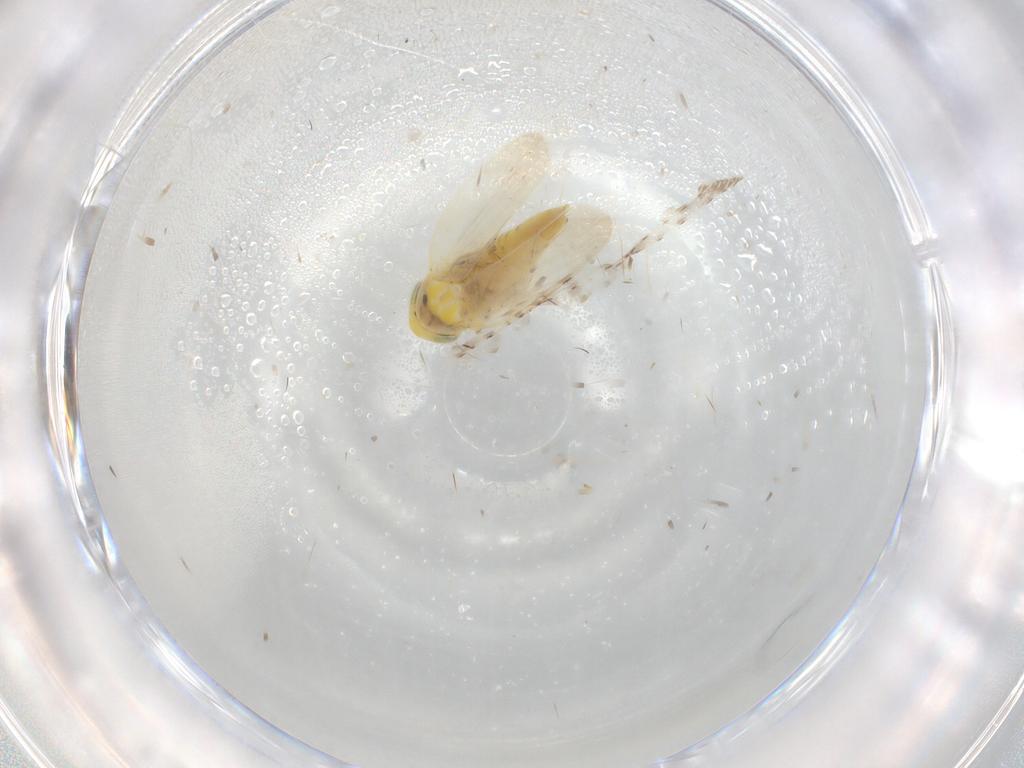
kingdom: Animalia
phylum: Arthropoda
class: Insecta
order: Hemiptera
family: Cicadellidae
